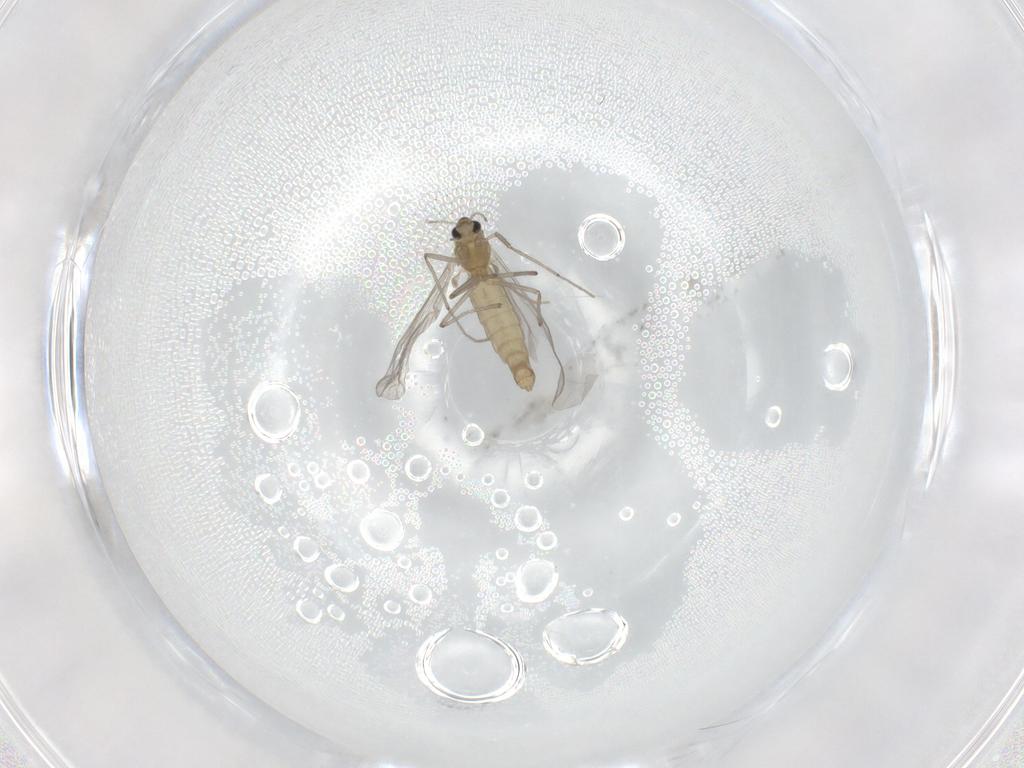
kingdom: Animalia
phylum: Arthropoda
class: Insecta
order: Diptera
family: Chironomidae
